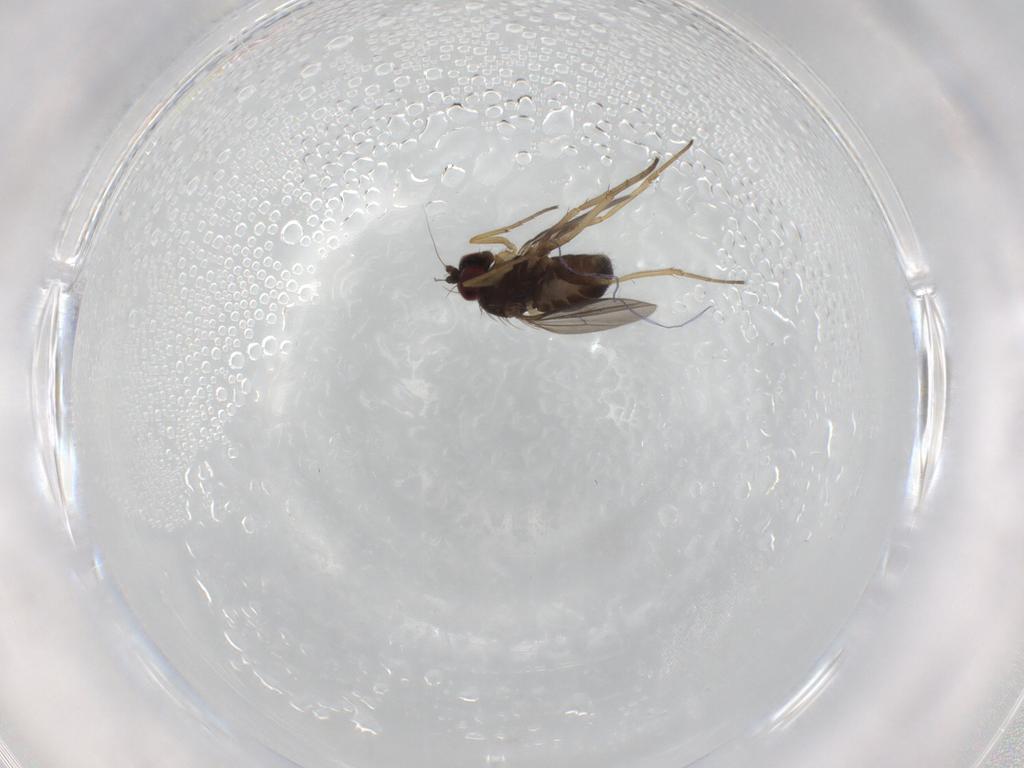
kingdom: Animalia
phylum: Arthropoda
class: Insecta
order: Diptera
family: Dolichopodidae
